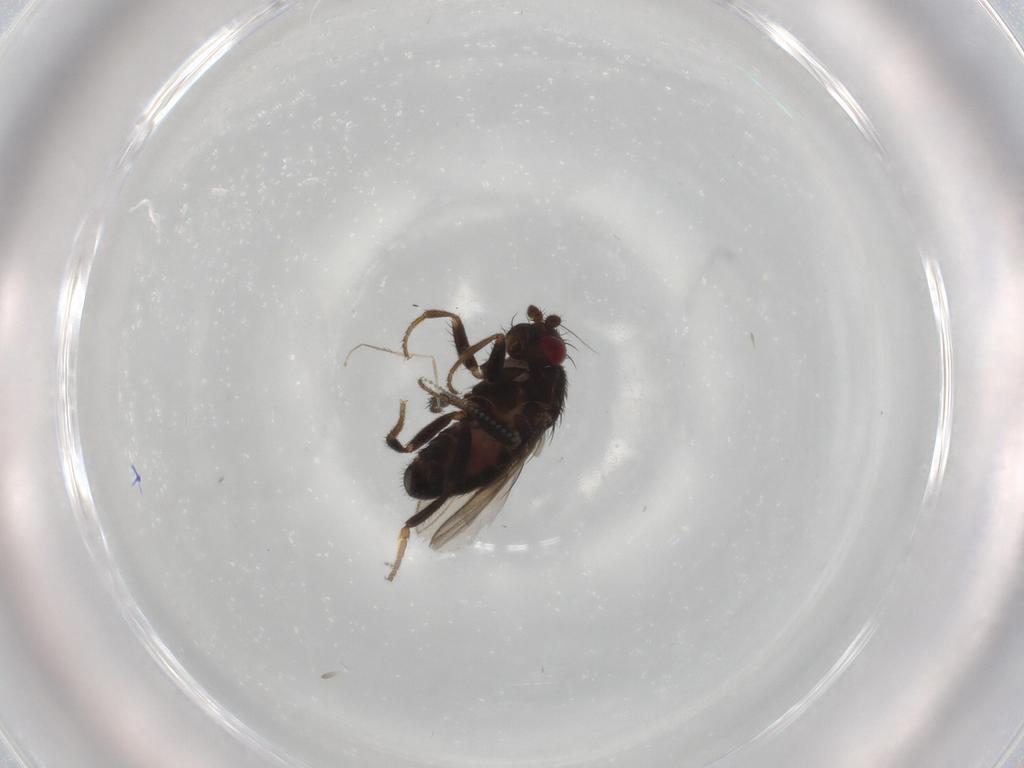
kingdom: Animalia
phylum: Arthropoda
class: Insecta
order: Diptera
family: Sphaeroceridae
